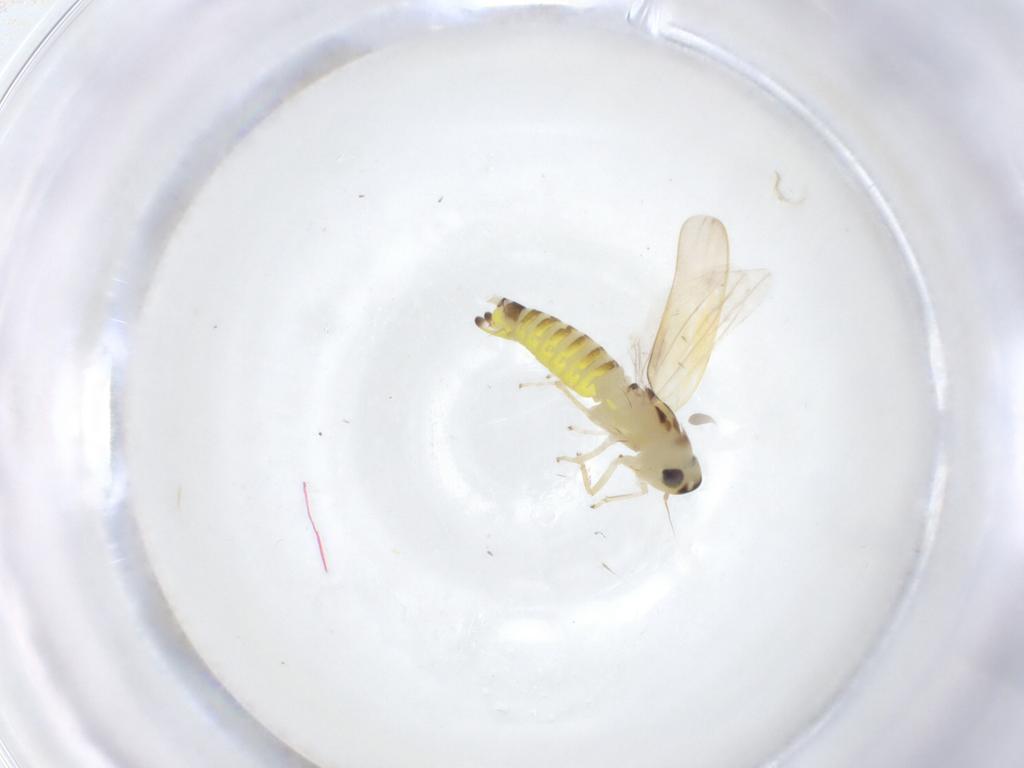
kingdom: Animalia
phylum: Arthropoda
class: Insecta
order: Hemiptera
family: Cicadellidae
